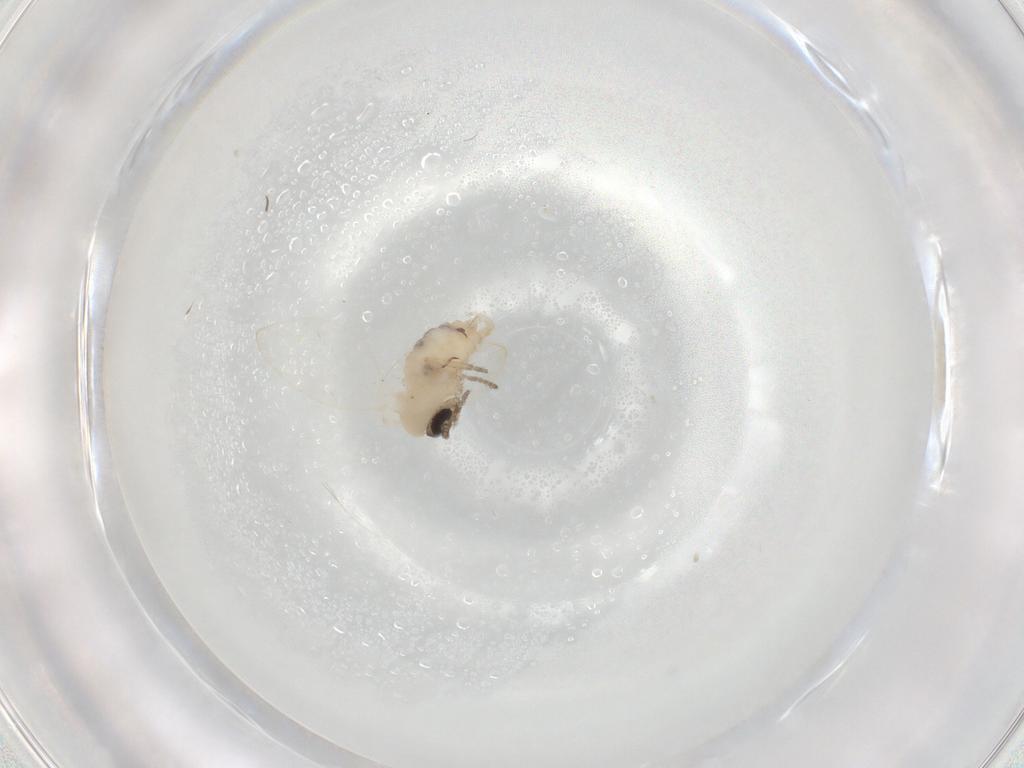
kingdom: Animalia
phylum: Arthropoda
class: Insecta
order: Diptera
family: Psychodidae
